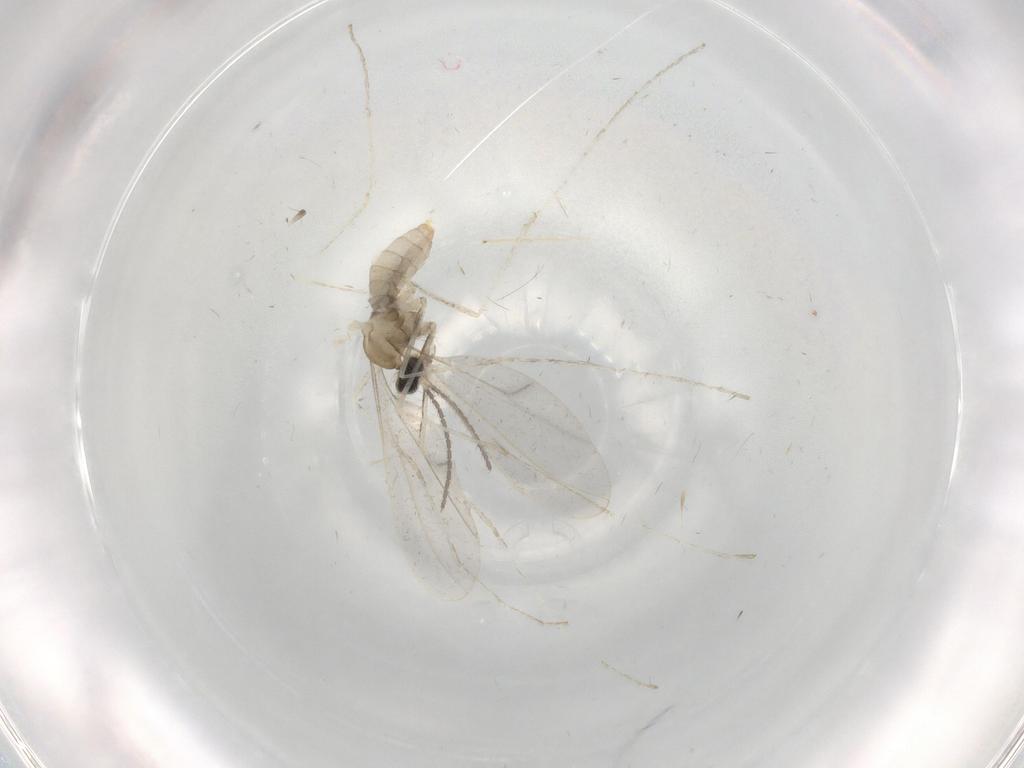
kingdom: Animalia
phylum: Arthropoda
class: Insecta
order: Diptera
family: Cecidomyiidae
